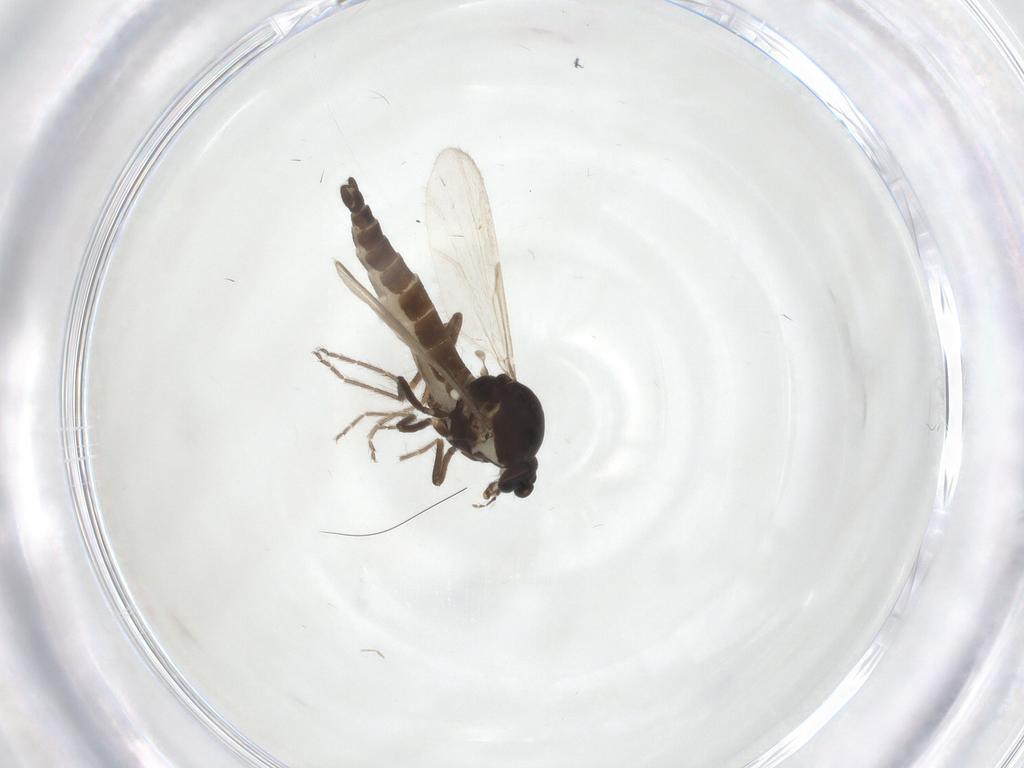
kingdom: Animalia
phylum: Arthropoda
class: Insecta
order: Diptera
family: Ceratopogonidae
